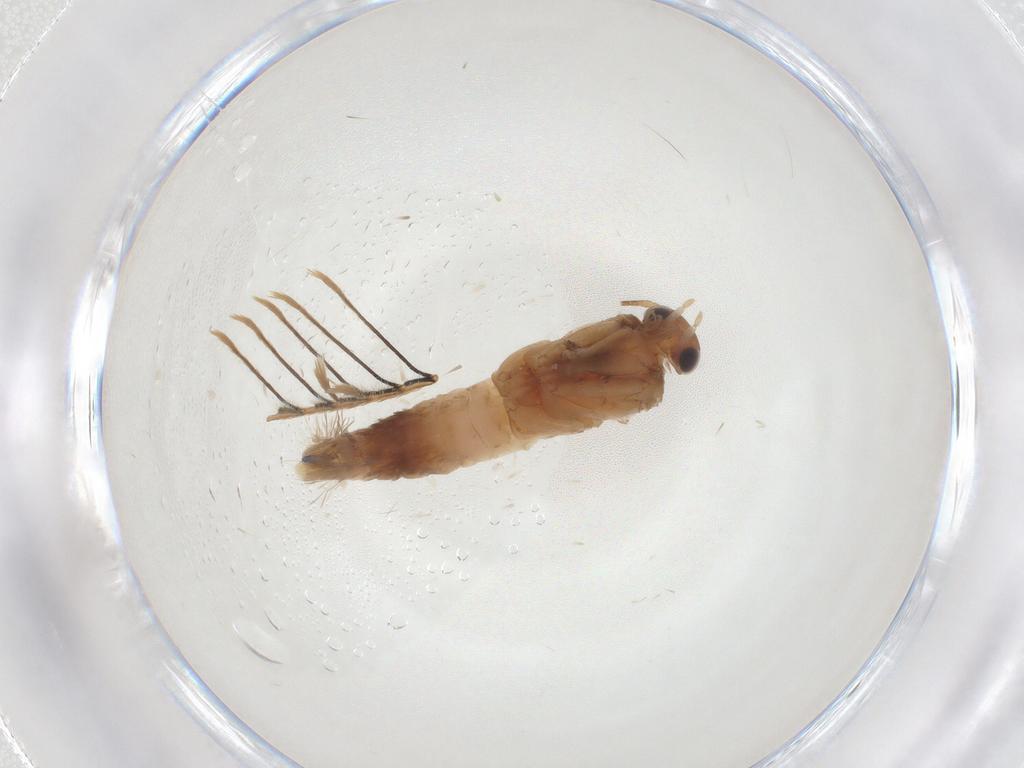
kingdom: Animalia
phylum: Arthropoda
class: Insecta
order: Lepidoptera
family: Glyphipterigidae
